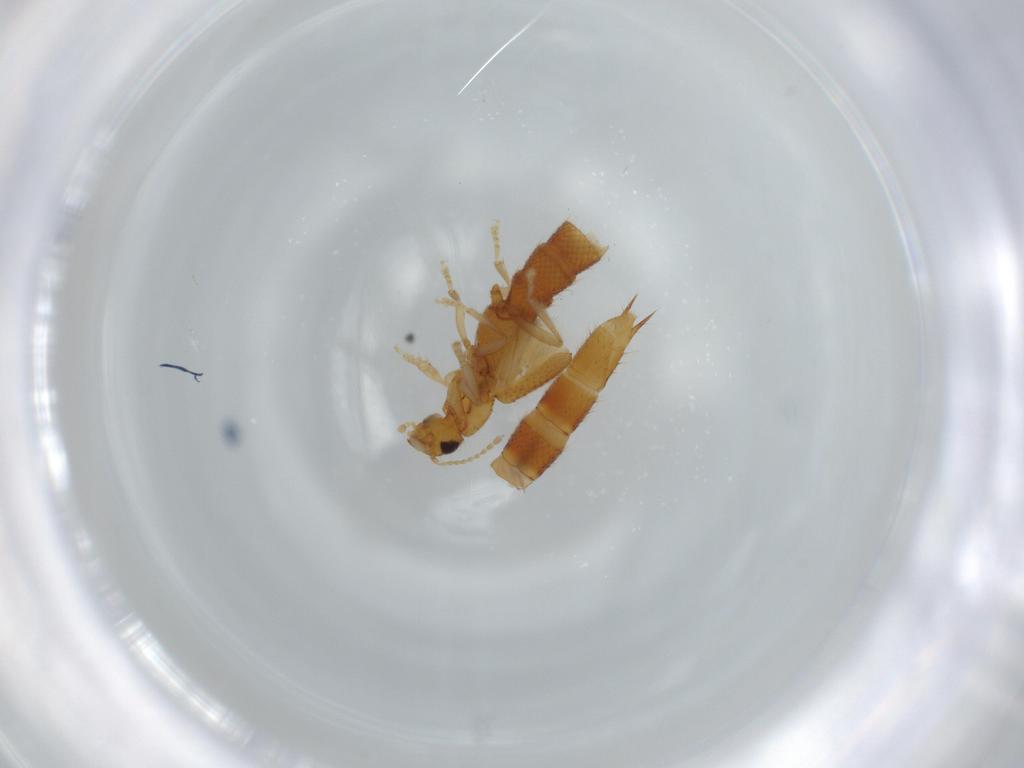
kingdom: Animalia
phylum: Arthropoda
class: Insecta
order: Coleoptera
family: Staphylinidae
